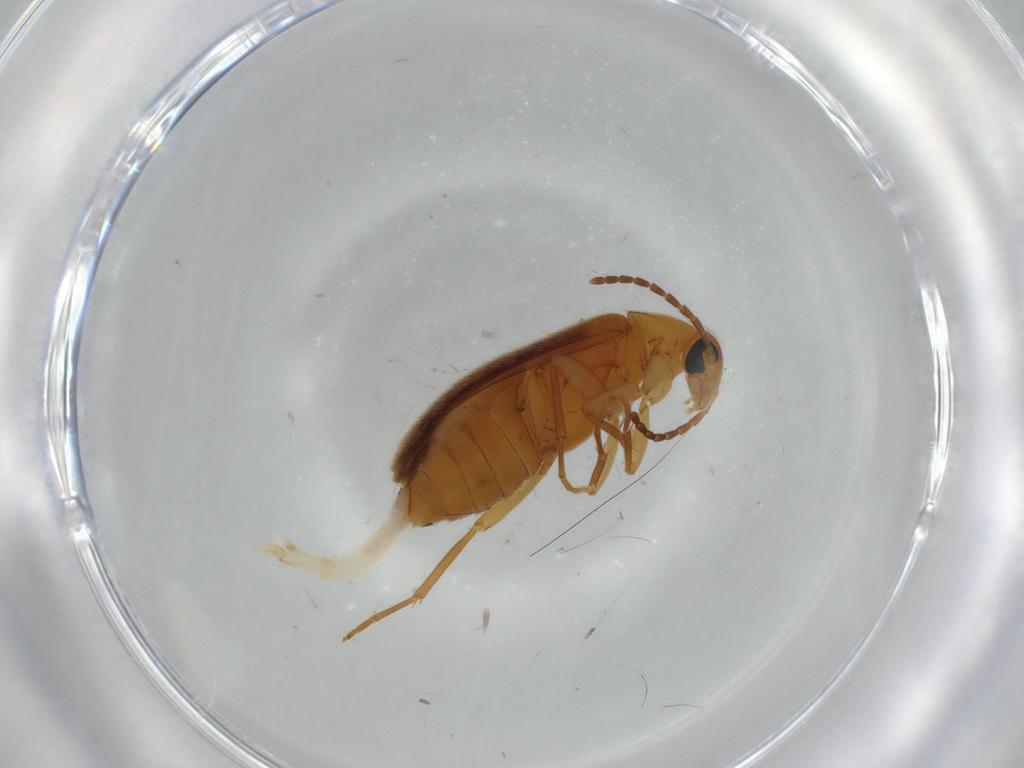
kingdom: Animalia
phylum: Arthropoda
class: Insecta
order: Coleoptera
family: Scraptiidae
